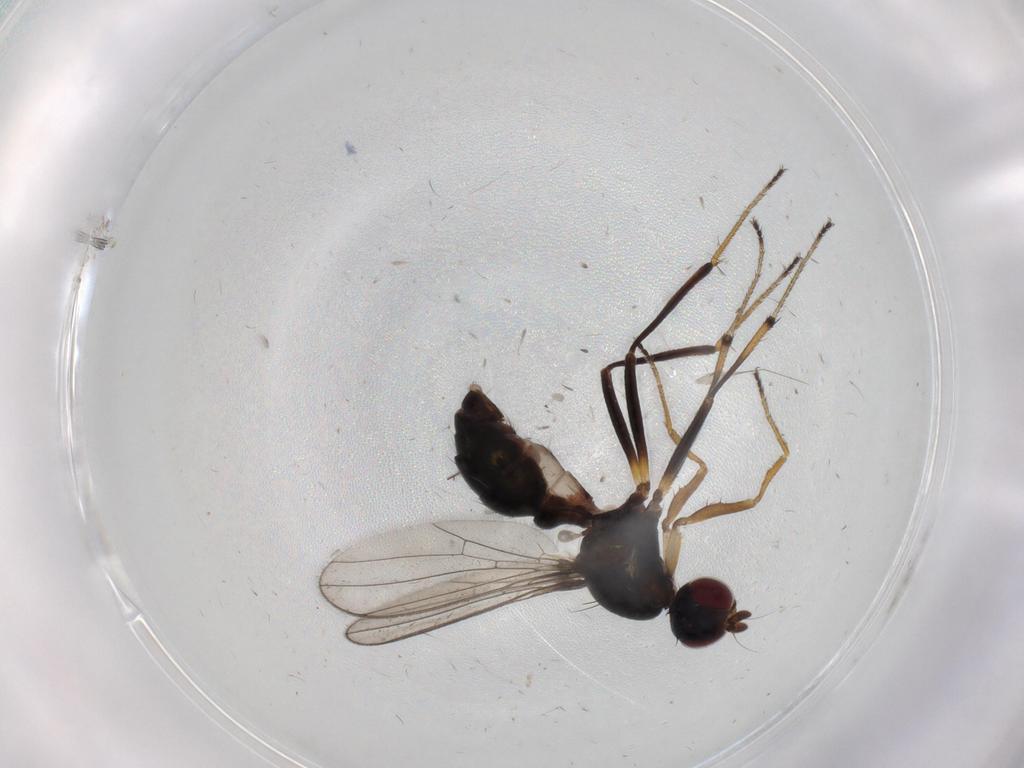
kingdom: Animalia
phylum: Arthropoda
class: Insecta
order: Diptera
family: Sepsidae
